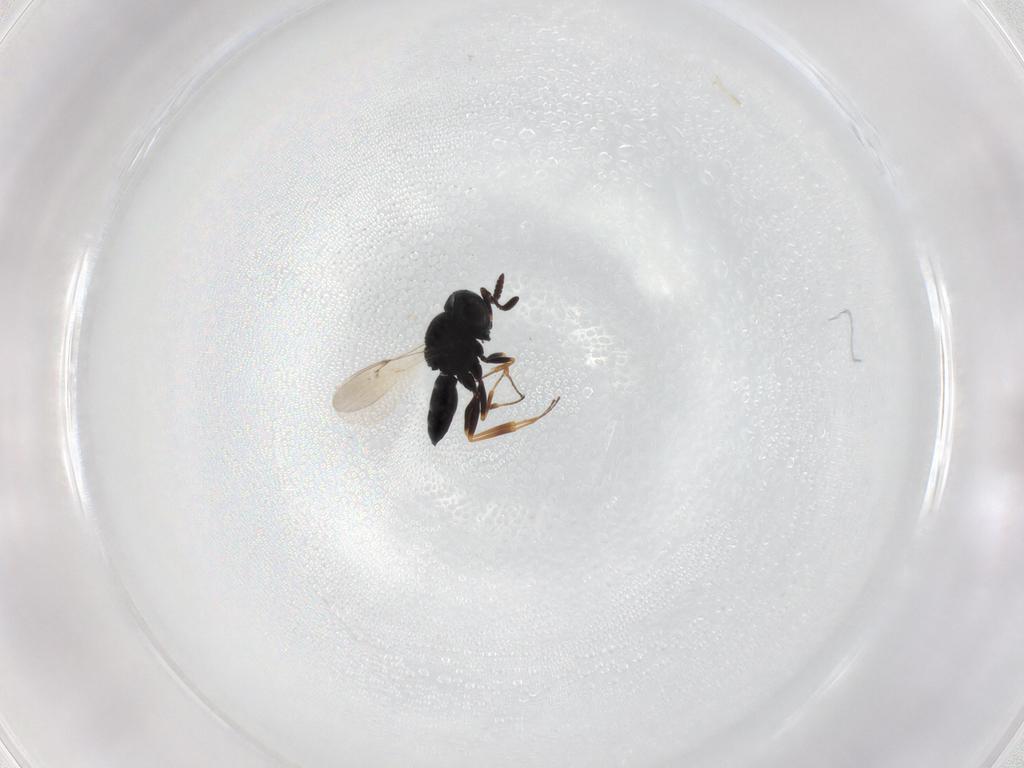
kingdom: Animalia
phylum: Arthropoda
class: Insecta
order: Hymenoptera
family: Scelionidae
